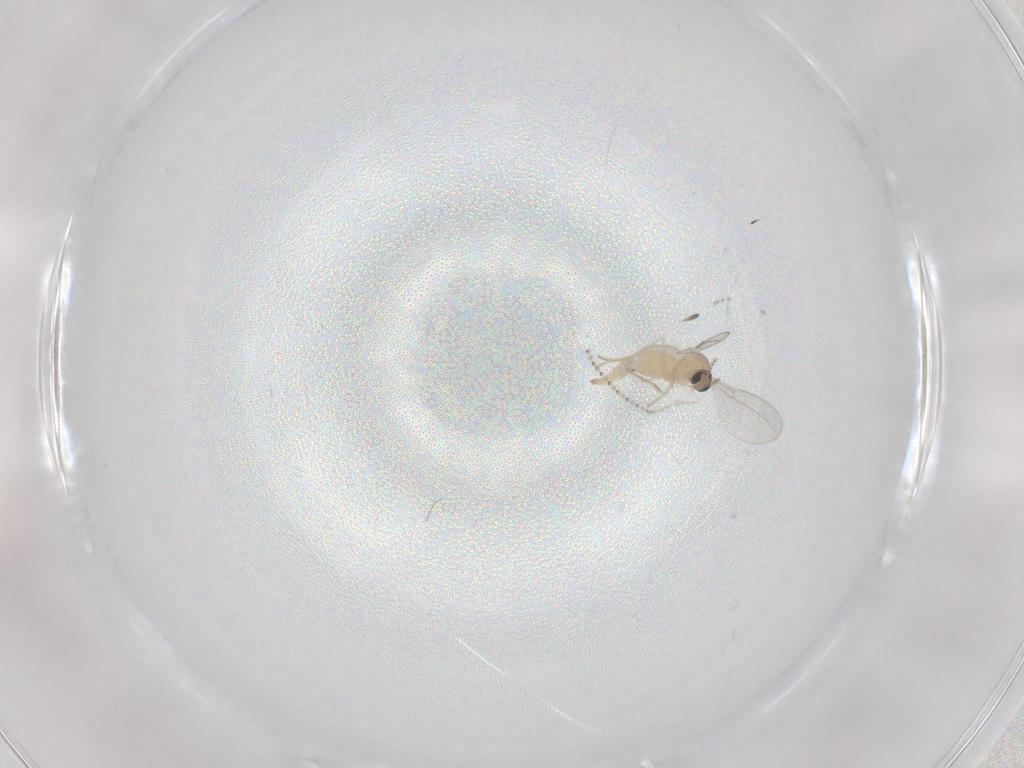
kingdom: Animalia
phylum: Arthropoda
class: Insecta
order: Diptera
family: Cecidomyiidae
